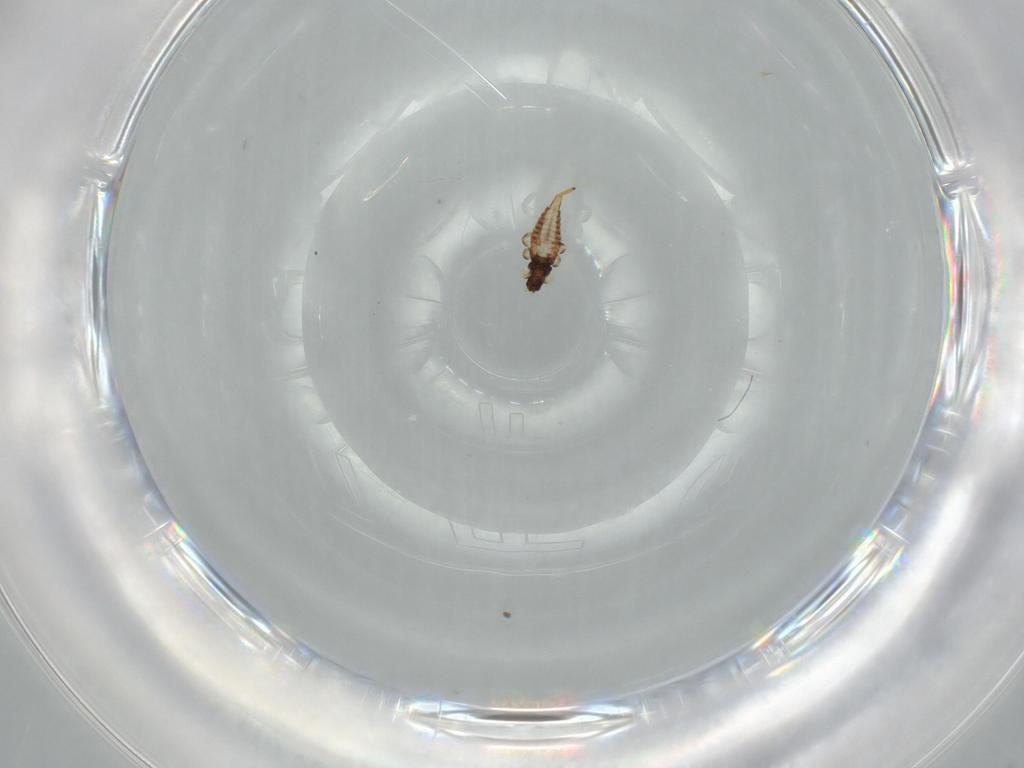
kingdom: Animalia
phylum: Arthropoda
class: Insecta
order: Thysanoptera
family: Phlaeothripidae
